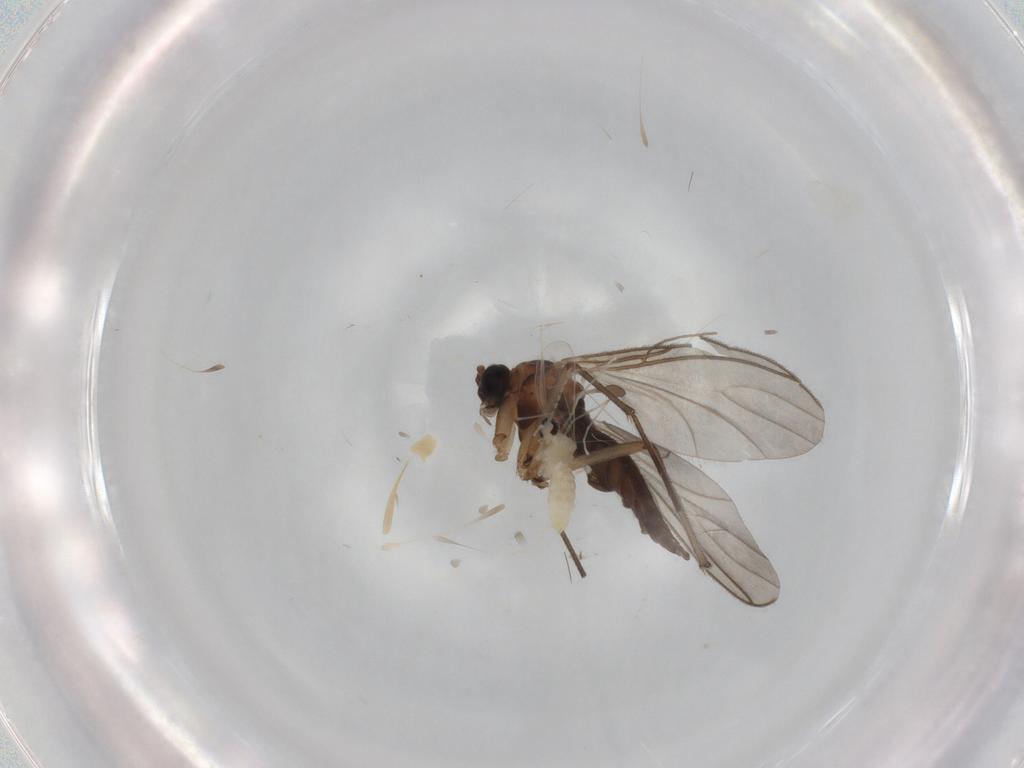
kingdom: Animalia
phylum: Arthropoda
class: Insecta
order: Diptera
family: Sciaridae
